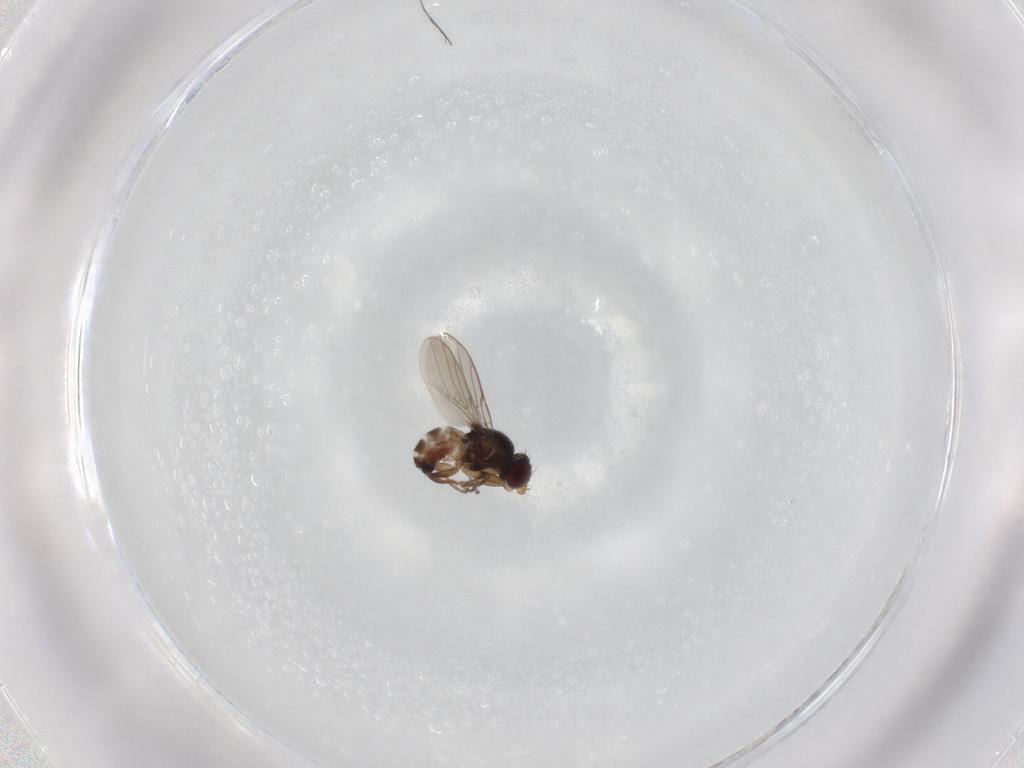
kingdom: Animalia
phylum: Arthropoda
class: Insecta
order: Diptera
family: Chloropidae
